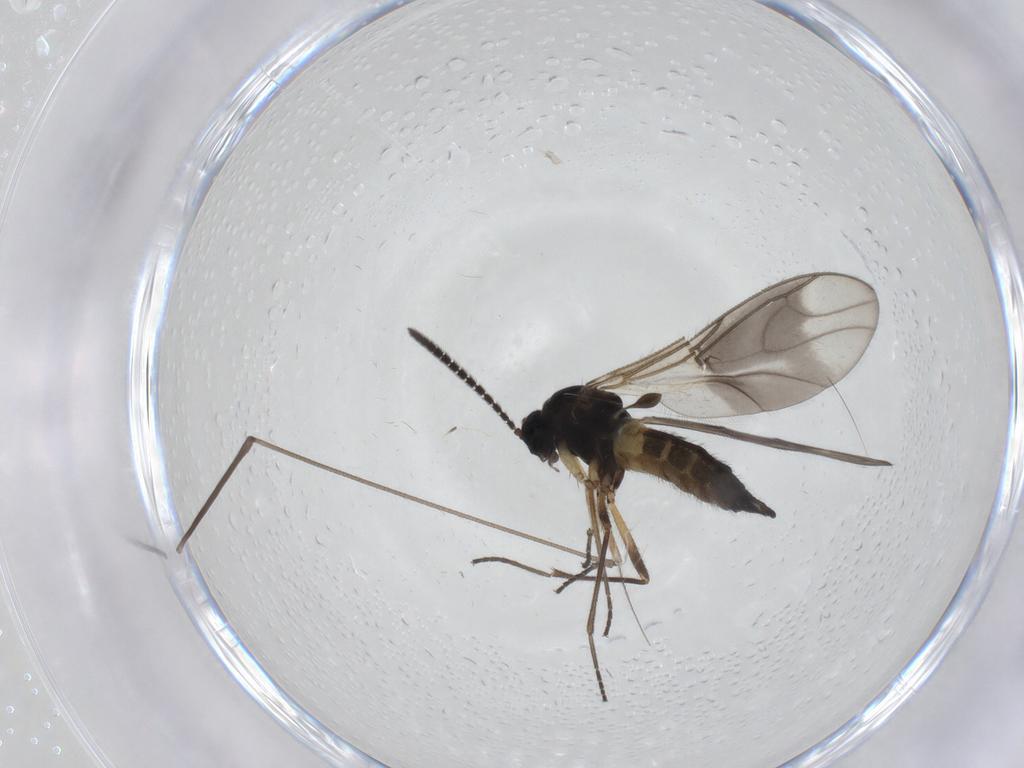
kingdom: Animalia
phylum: Arthropoda
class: Insecta
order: Diptera
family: Sciaridae
